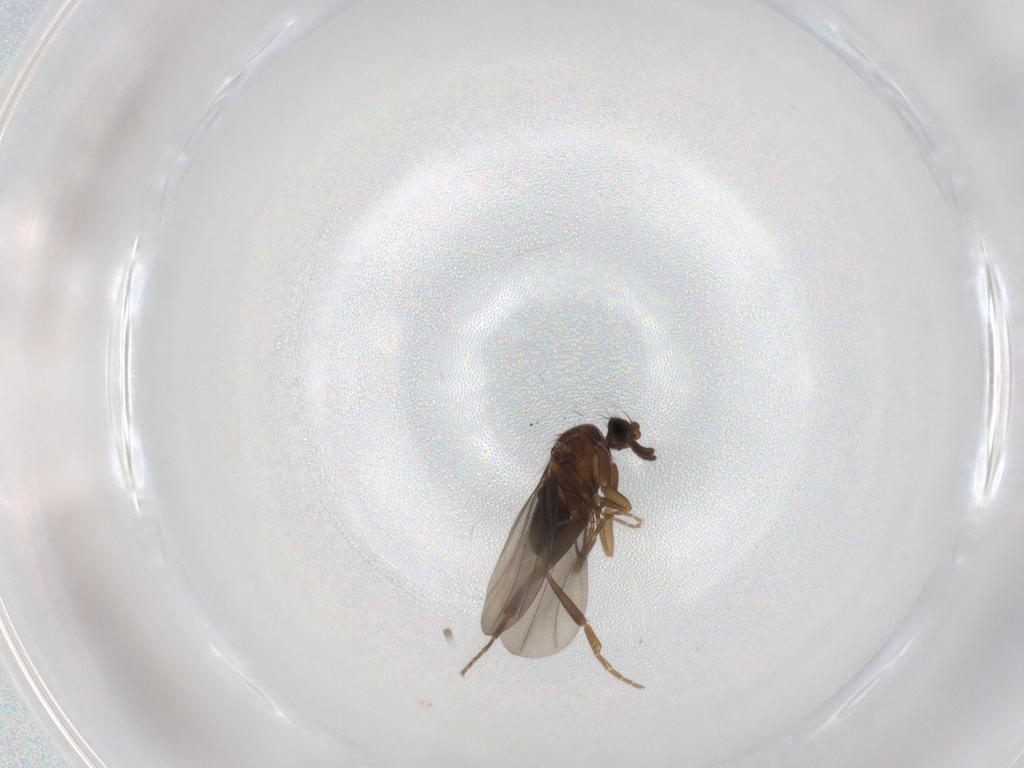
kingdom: Animalia
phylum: Arthropoda
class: Insecta
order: Diptera
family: Phoridae
